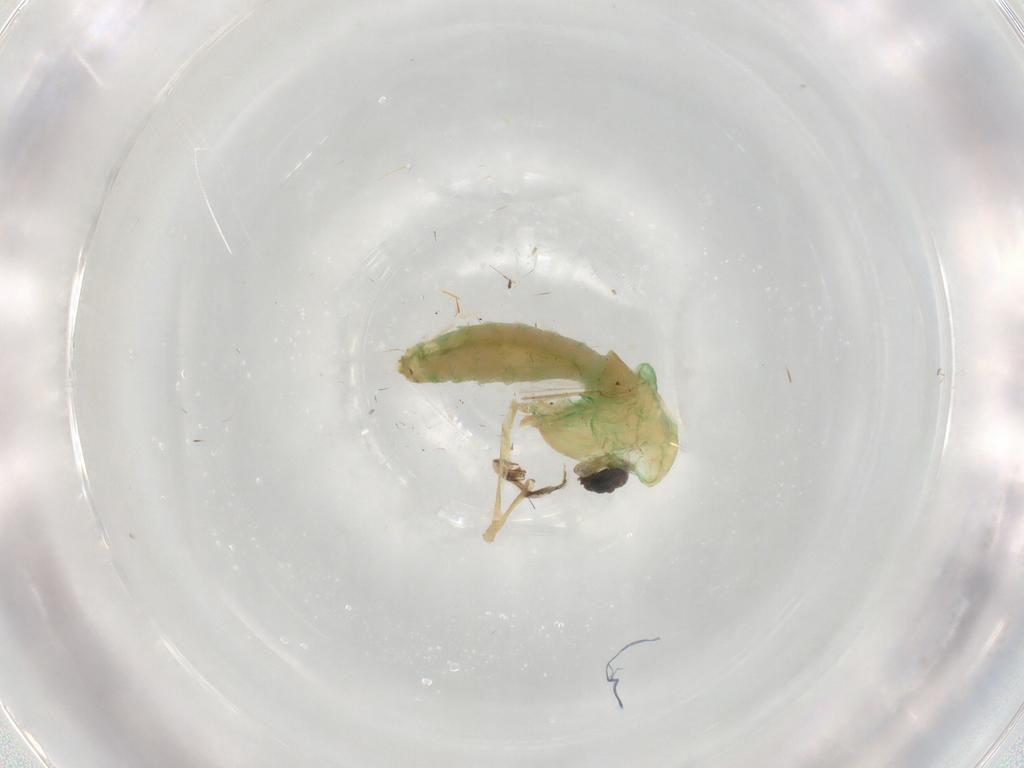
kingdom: Animalia
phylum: Arthropoda
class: Insecta
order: Diptera
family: Chironomidae
